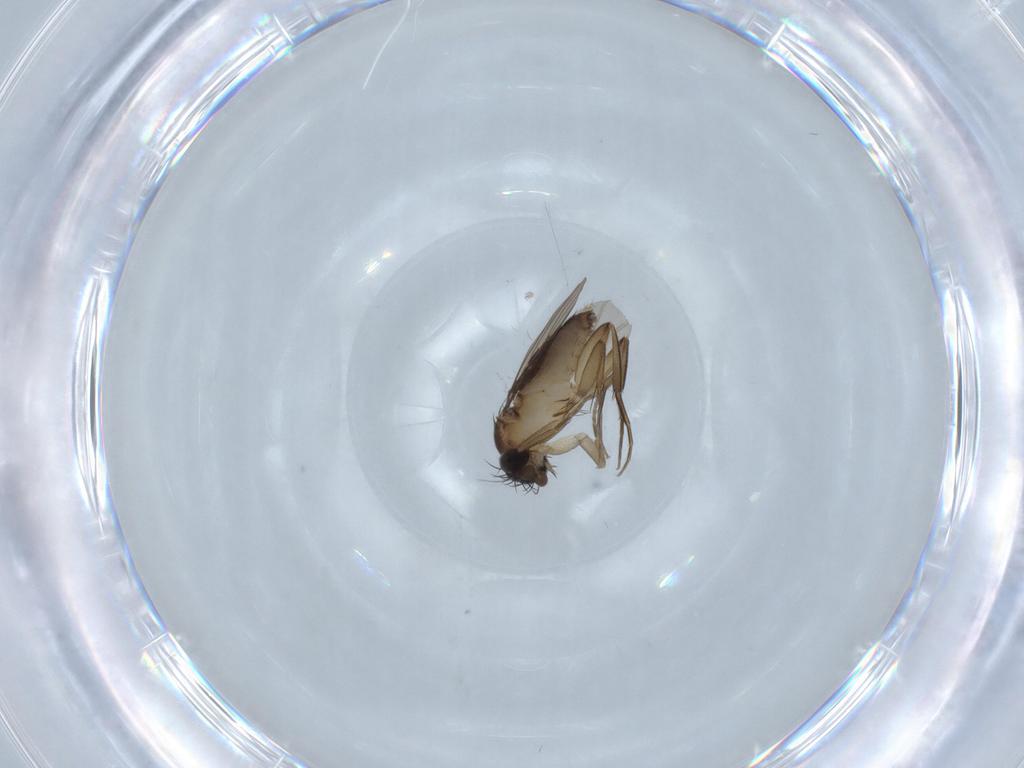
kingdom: Animalia
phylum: Arthropoda
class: Insecta
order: Diptera
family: Phoridae
